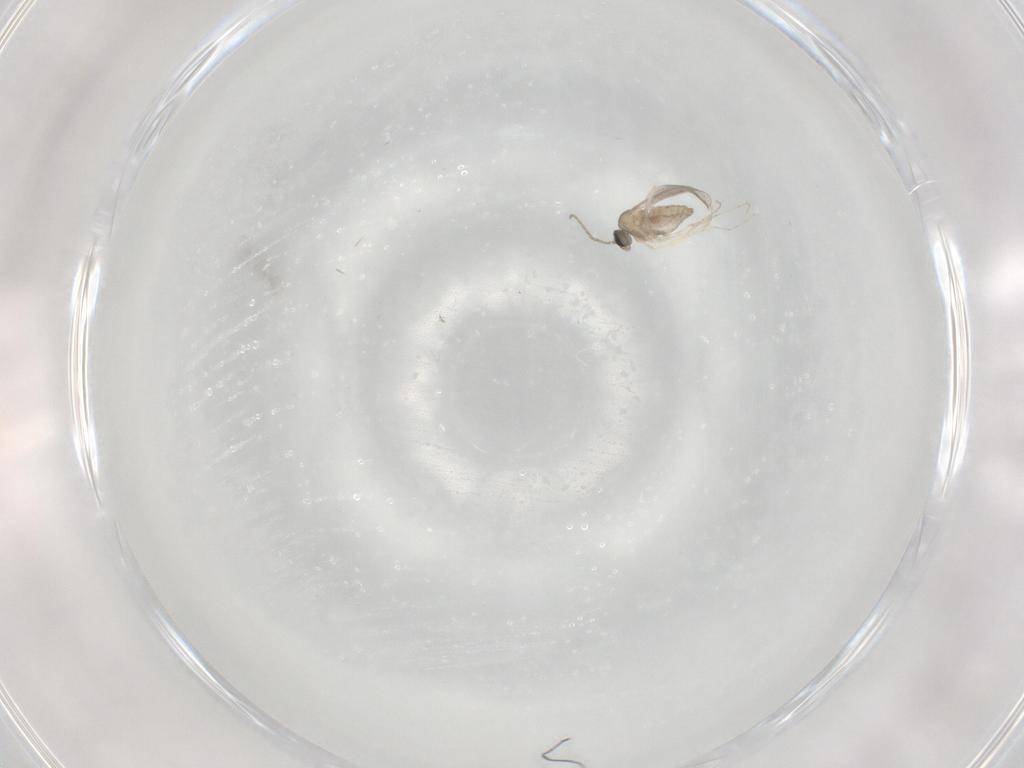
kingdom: Animalia
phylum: Arthropoda
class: Insecta
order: Diptera
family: Cecidomyiidae
